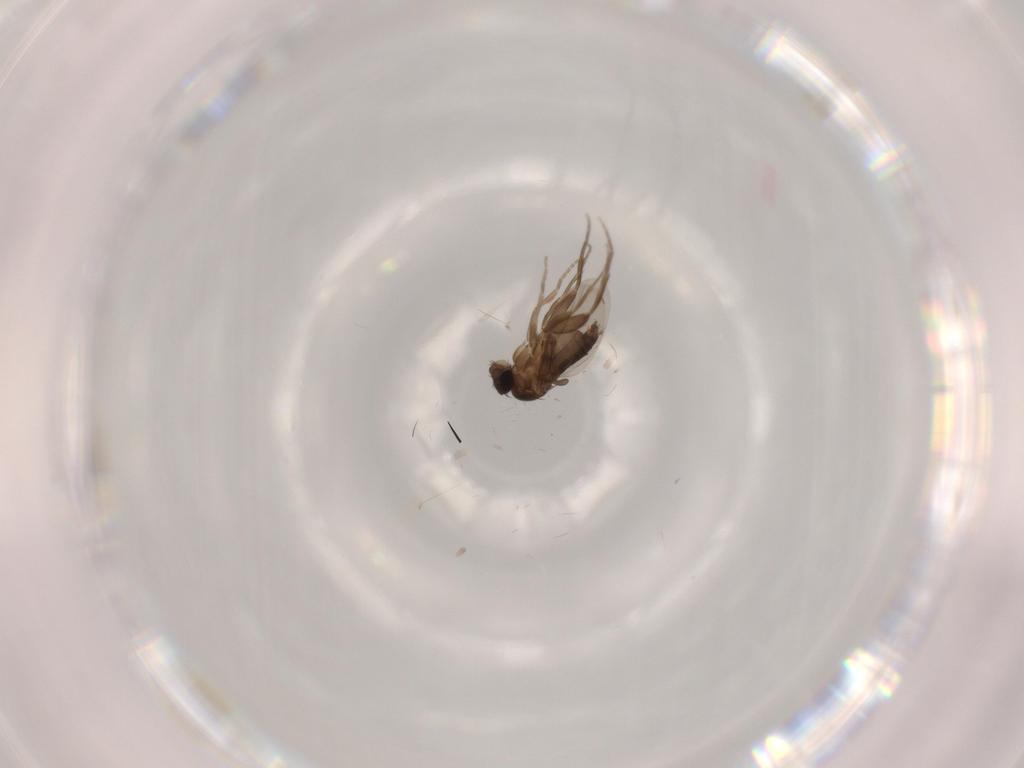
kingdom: Animalia
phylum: Arthropoda
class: Insecta
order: Diptera
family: Phoridae
